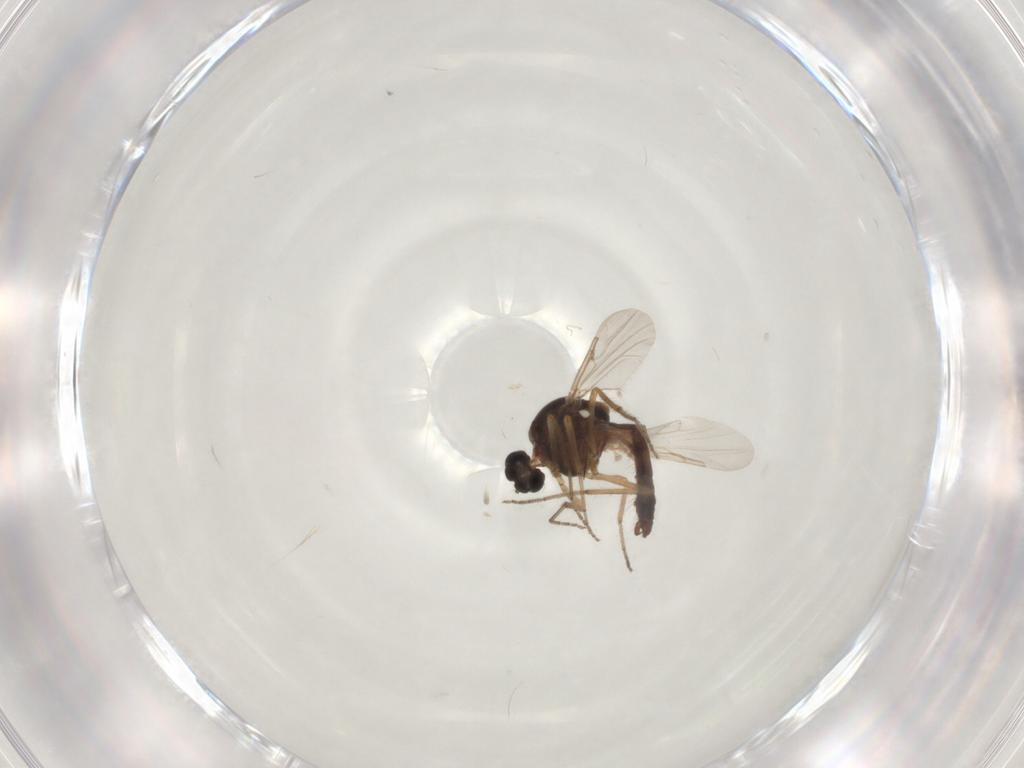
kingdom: Animalia
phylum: Arthropoda
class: Insecta
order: Diptera
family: Ceratopogonidae
